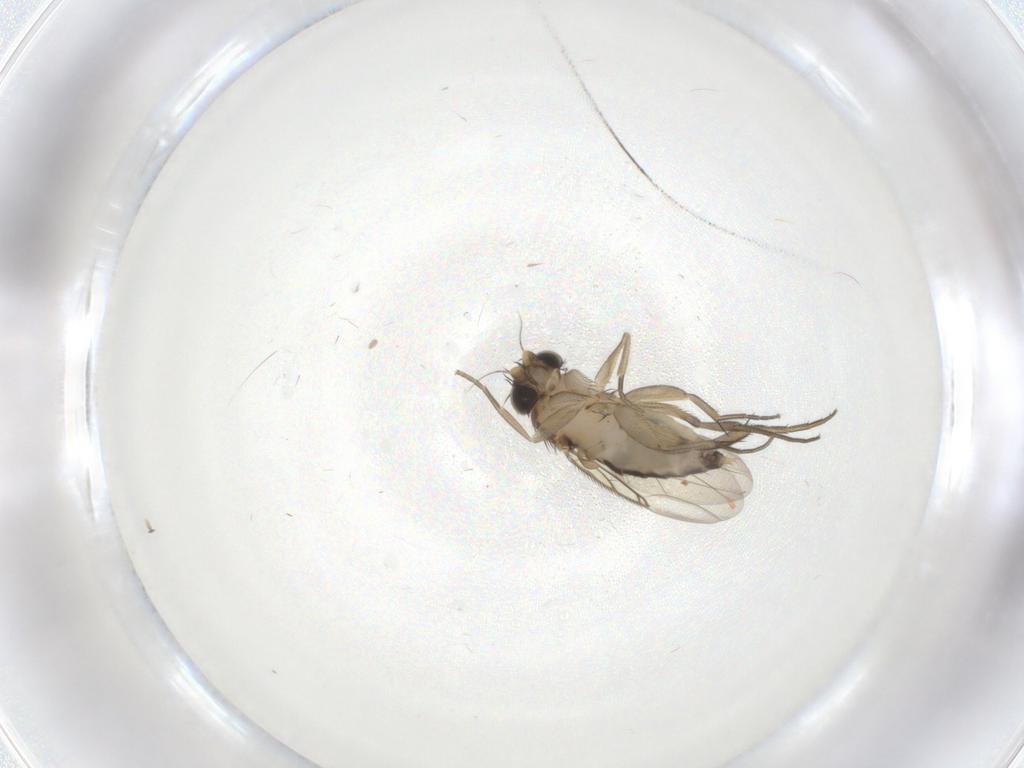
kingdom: Animalia
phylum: Arthropoda
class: Insecta
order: Diptera
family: Phoridae
